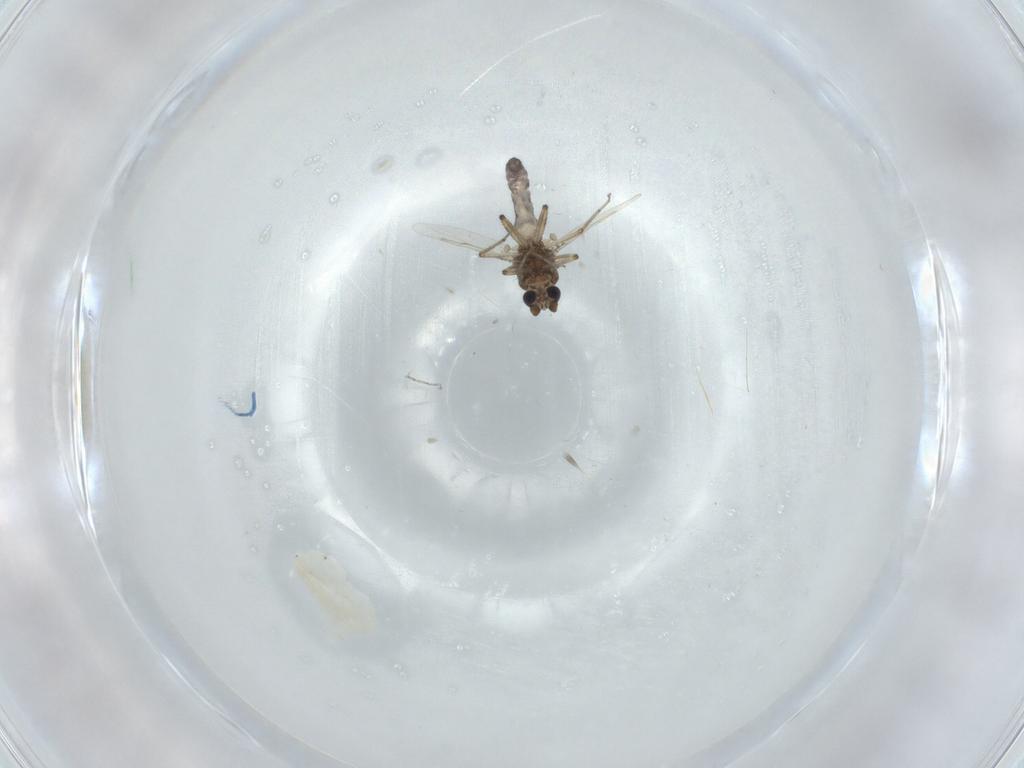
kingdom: Animalia
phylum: Arthropoda
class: Insecta
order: Diptera
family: Ceratopogonidae
